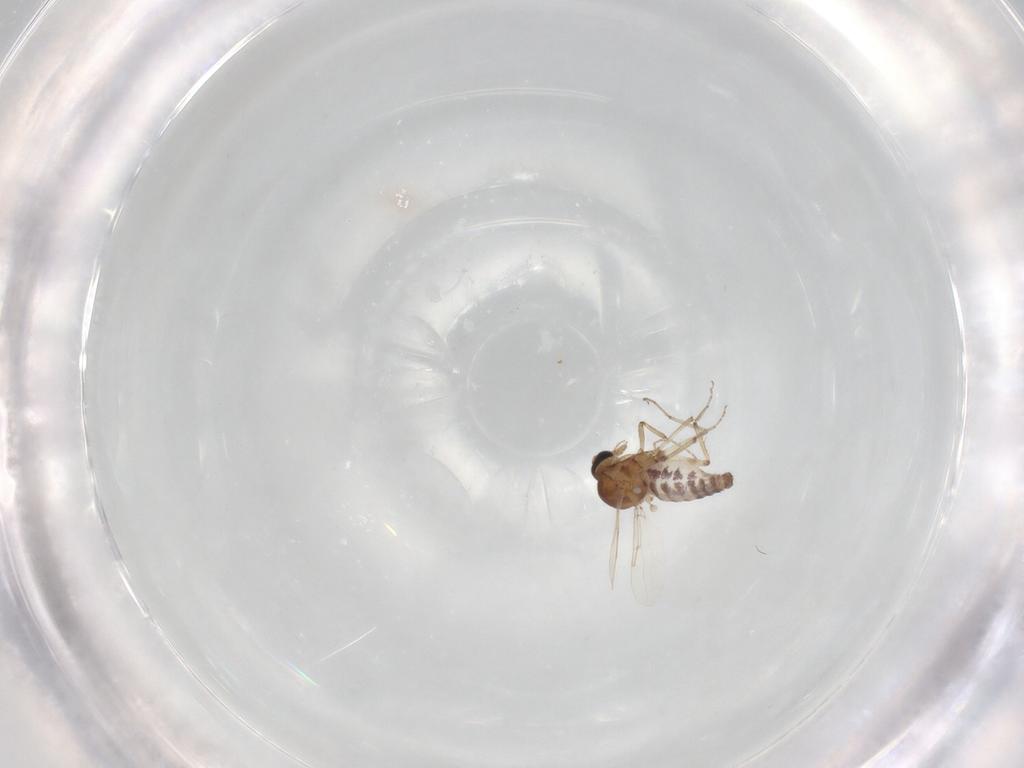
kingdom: Animalia
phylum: Arthropoda
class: Insecta
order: Diptera
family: Ceratopogonidae
